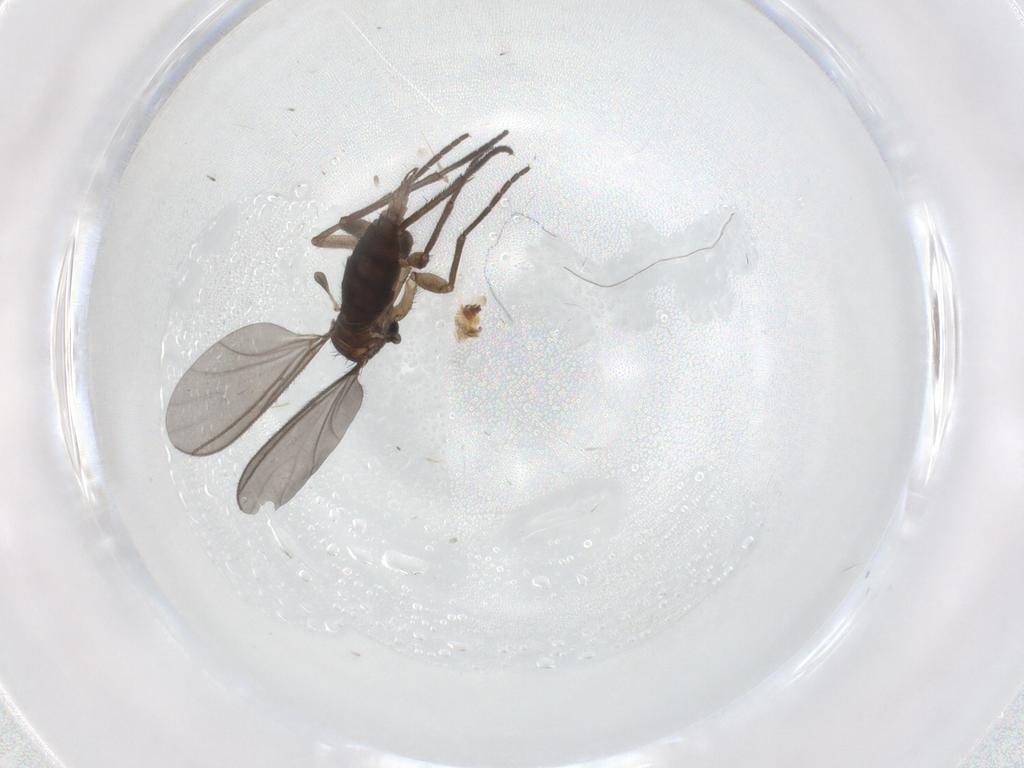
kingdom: Animalia
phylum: Arthropoda
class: Insecta
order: Diptera
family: Sciaridae
